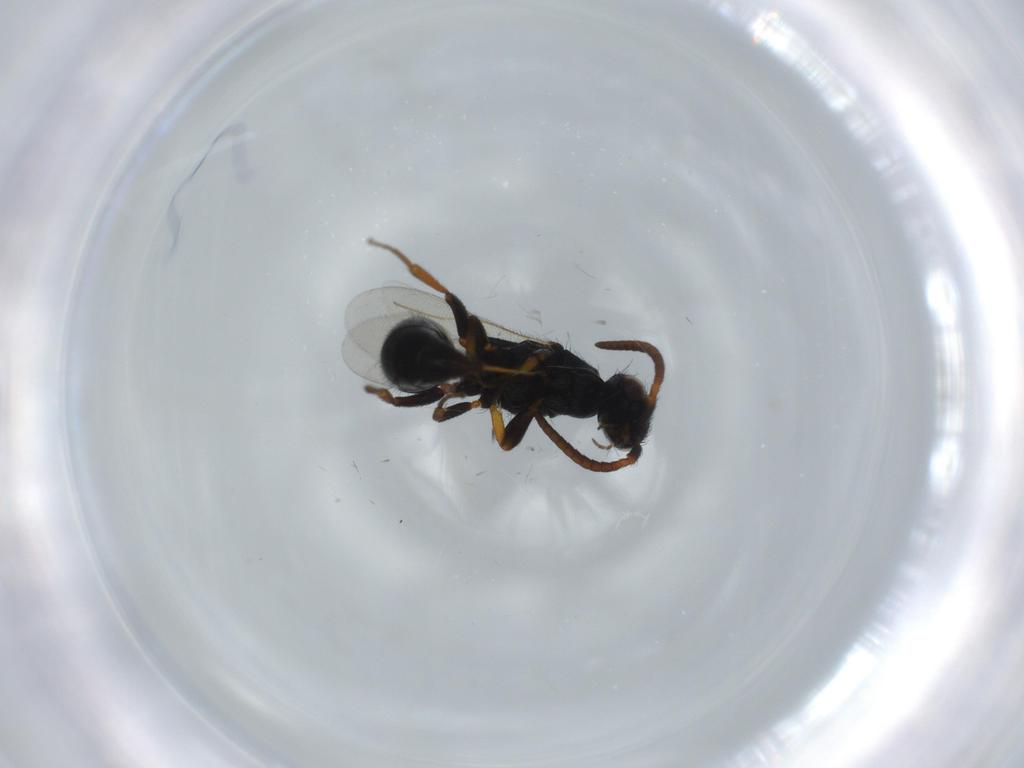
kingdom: Animalia
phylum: Arthropoda
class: Insecta
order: Hymenoptera
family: Bethylidae
